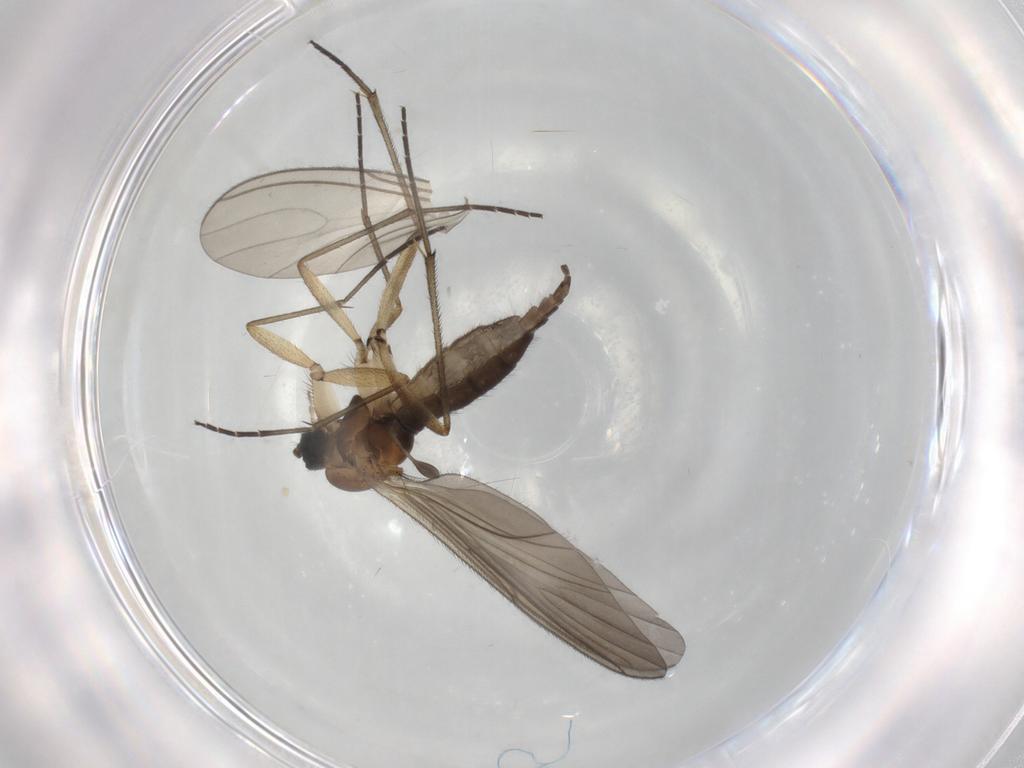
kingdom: Animalia
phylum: Arthropoda
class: Insecta
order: Diptera
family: Sciaridae
